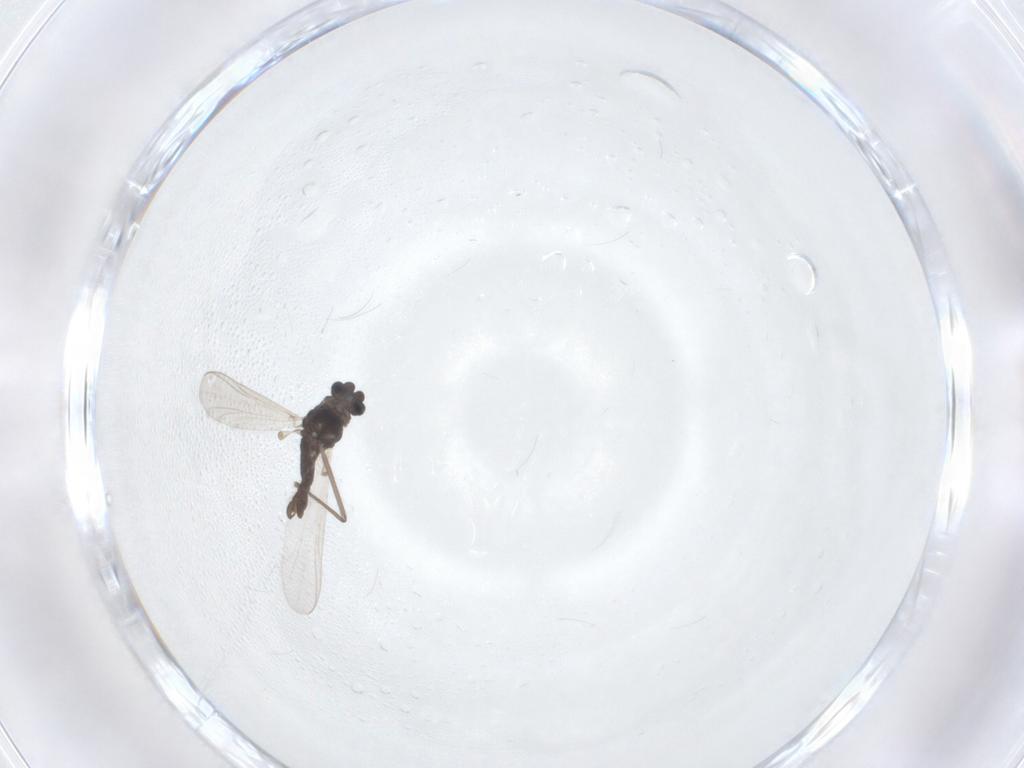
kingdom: Animalia
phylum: Arthropoda
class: Insecta
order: Diptera
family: Chironomidae
